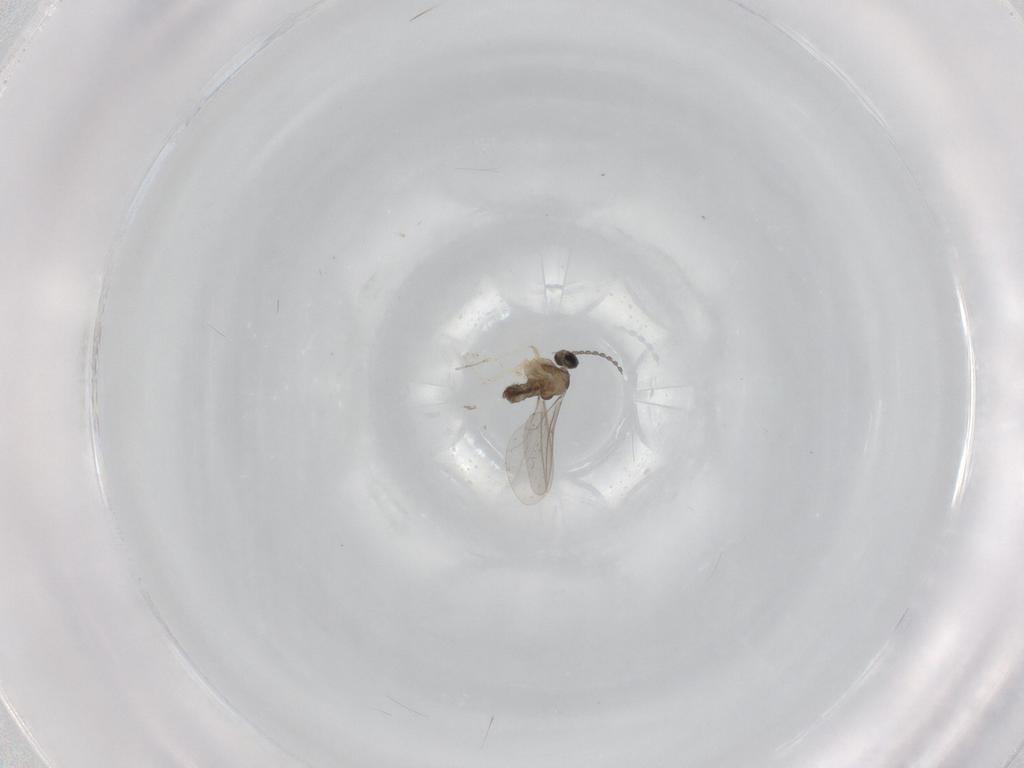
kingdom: Animalia
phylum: Arthropoda
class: Insecta
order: Diptera
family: Cecidomyiidae
